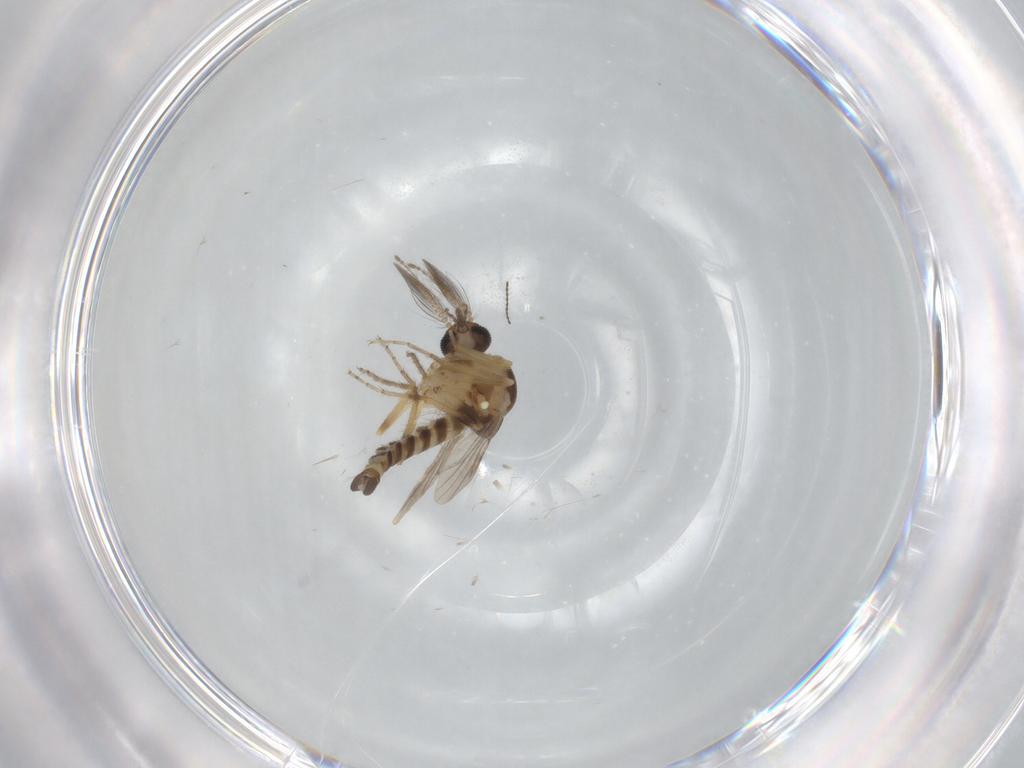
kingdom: Animalia
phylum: Arthropoda
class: Insecta
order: Diptera
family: Ceratopogonidae
